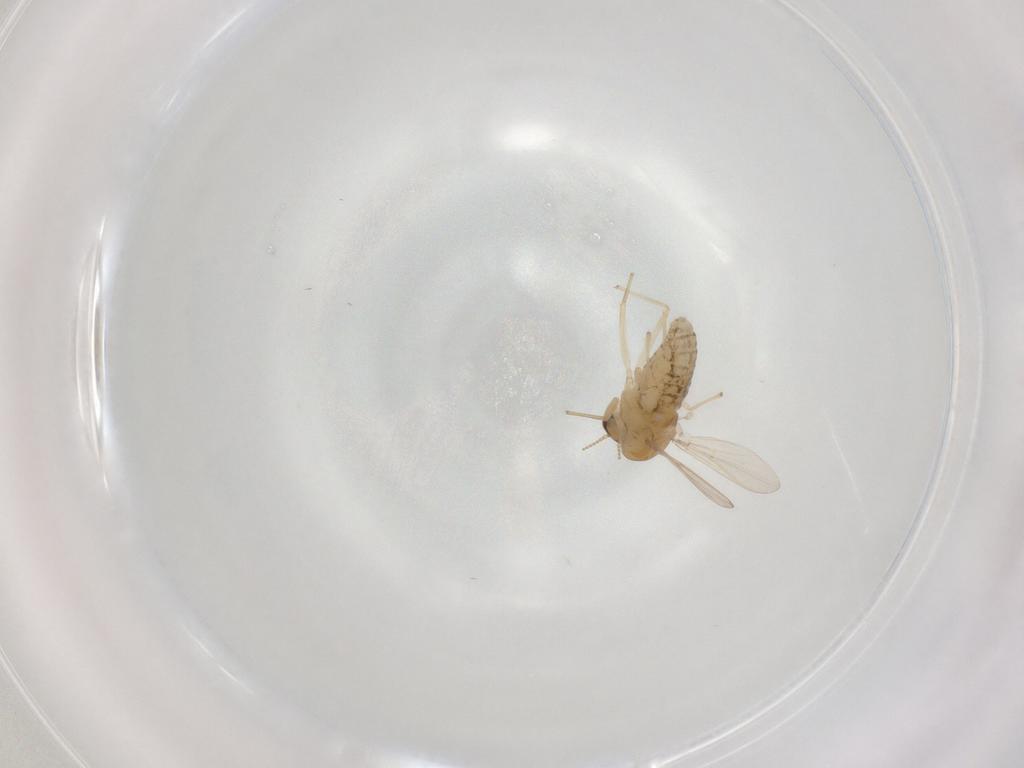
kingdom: Animalia
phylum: Arthropoda
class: Insecta
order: Diptera
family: Chironomidae
